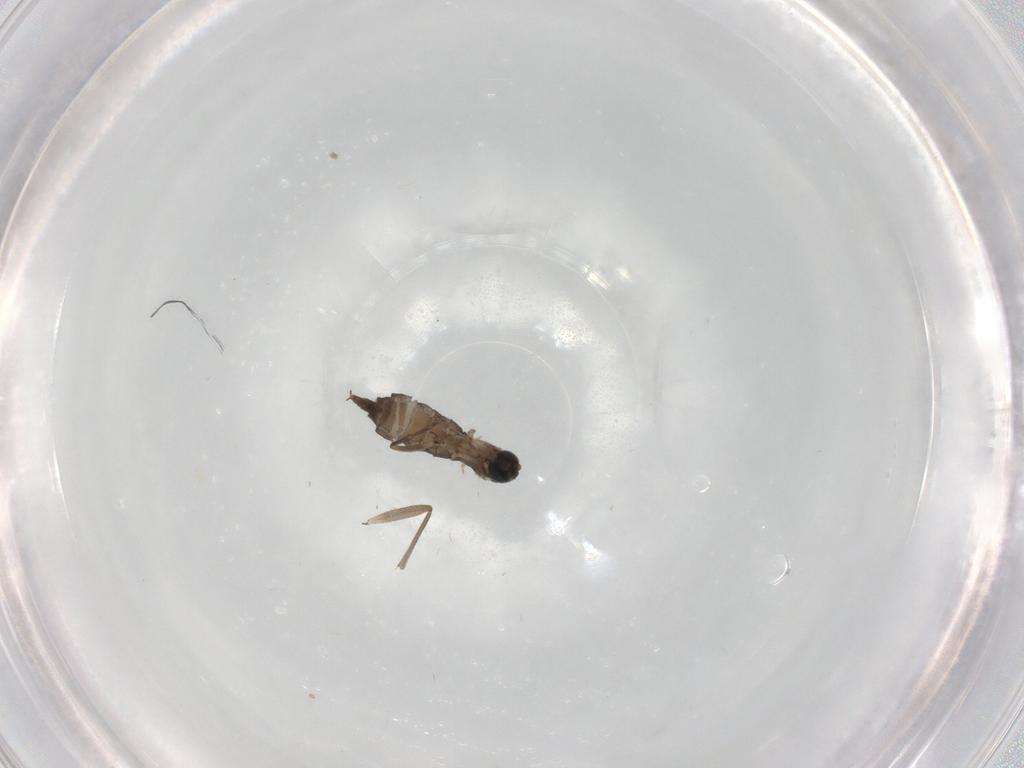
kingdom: Animalia
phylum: Arthropoda
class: Insecta
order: Diptera
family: Sciaridae
